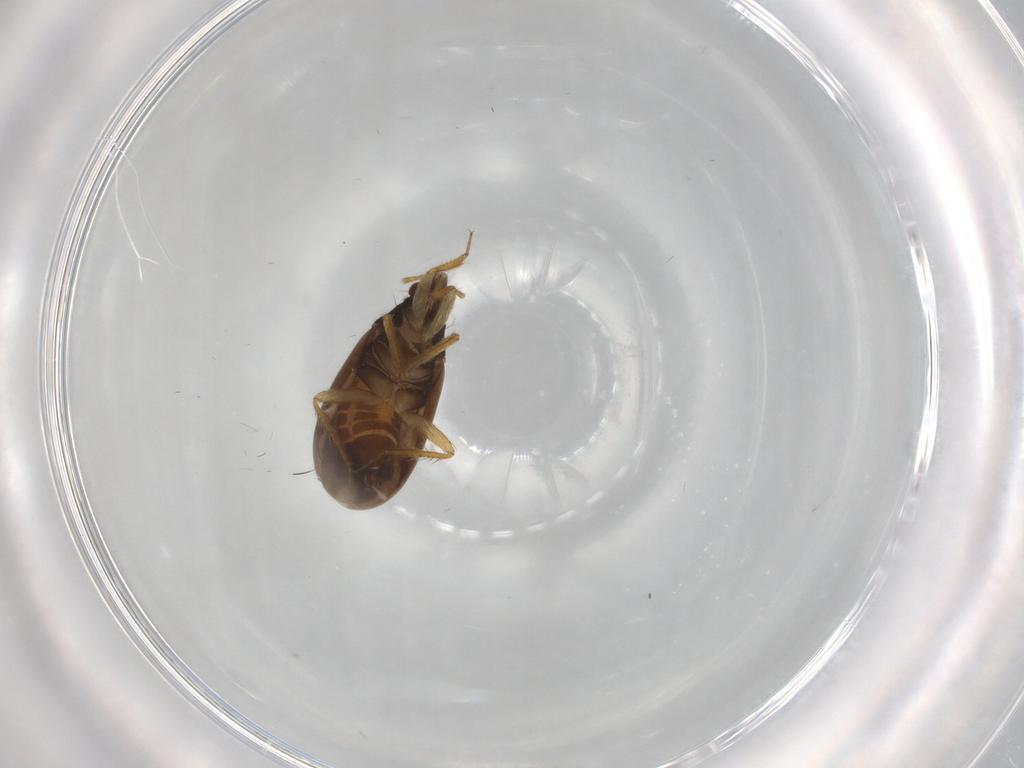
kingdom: Animalia
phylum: Arthropoda
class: Insecta
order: Hemiptera
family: Ceratocombidae
